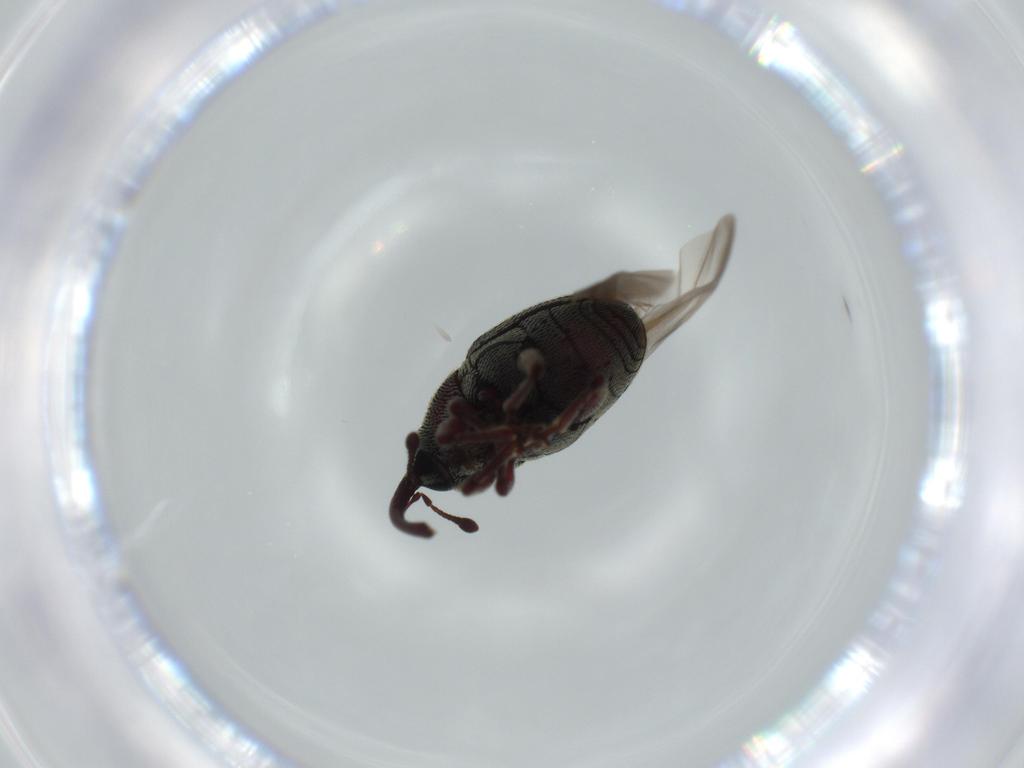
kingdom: Animalia
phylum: Arthropoda
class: Insecta
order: Coleoptera
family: Curculionidae
